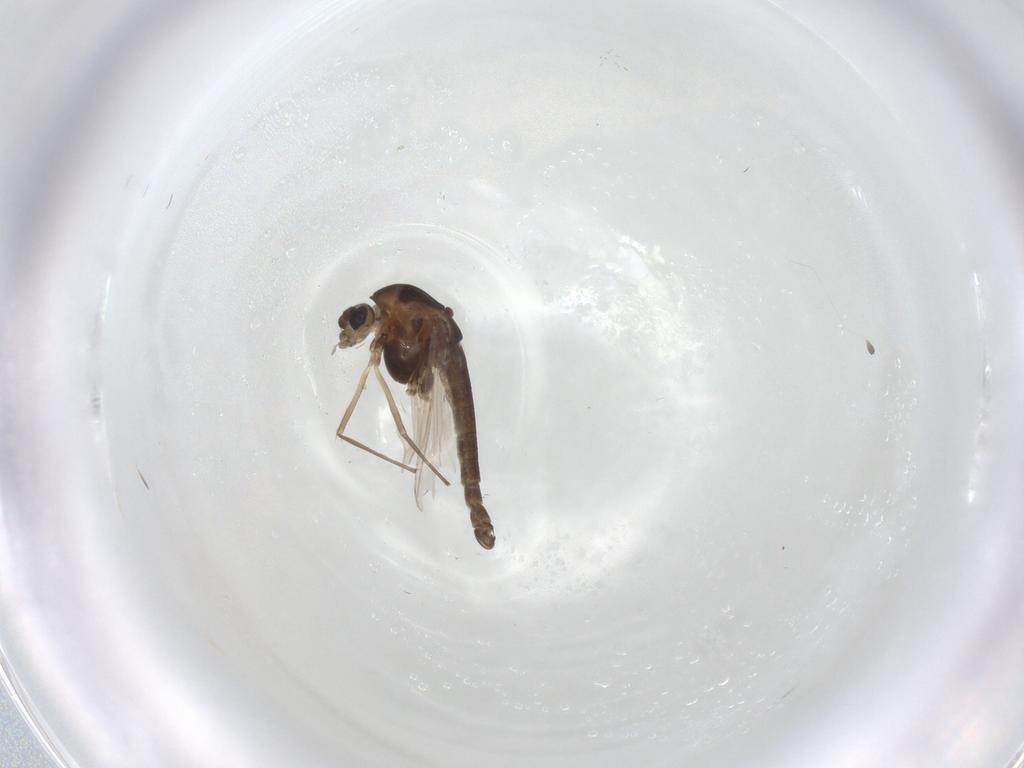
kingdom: Animalia
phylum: Arthropoda
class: Insecta
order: Diptera
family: Chironomidae
